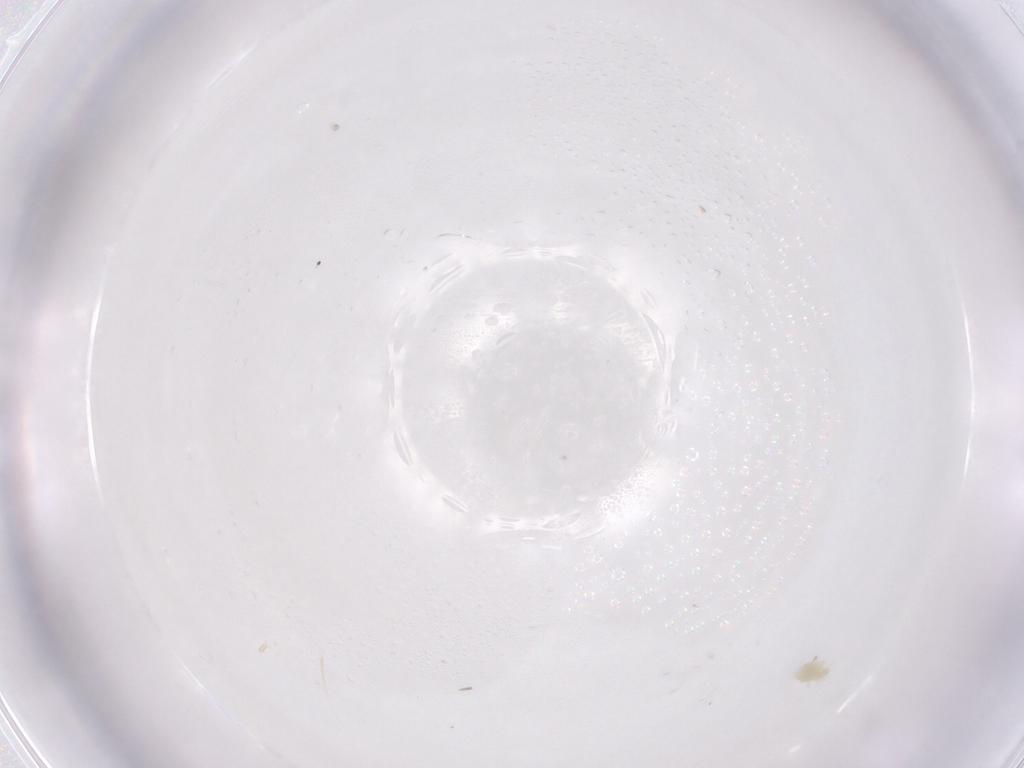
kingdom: Animalia
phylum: Arthropoda
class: Arachnida
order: Trombidiformes
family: Eupodidae
